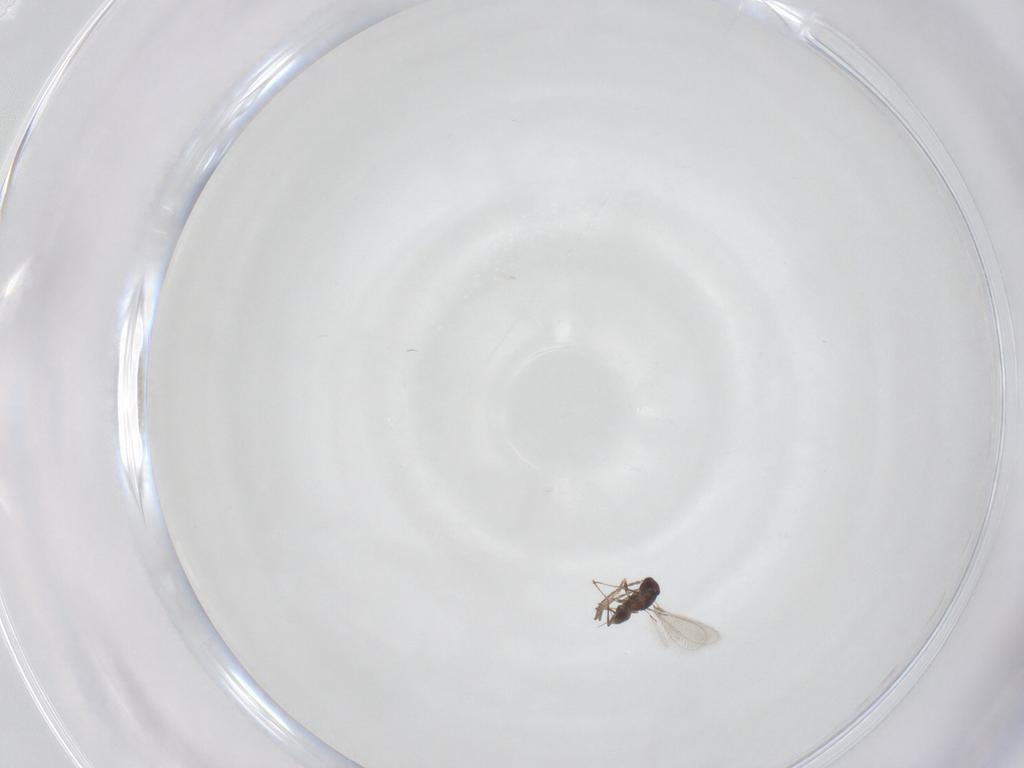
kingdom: Animalia
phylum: Arthropoda
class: Insecta
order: Hymenoptera
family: Mymaridae
